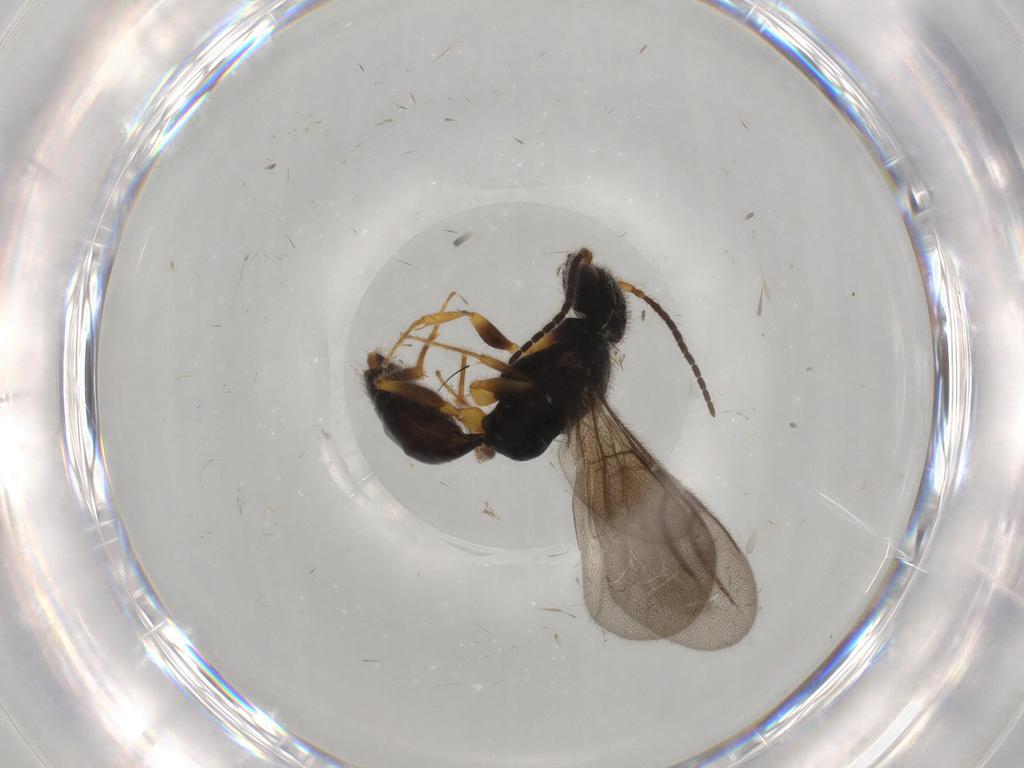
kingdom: Animalia
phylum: Arthropoda
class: Insecta
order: Hymenoptera
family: Bethylidae
